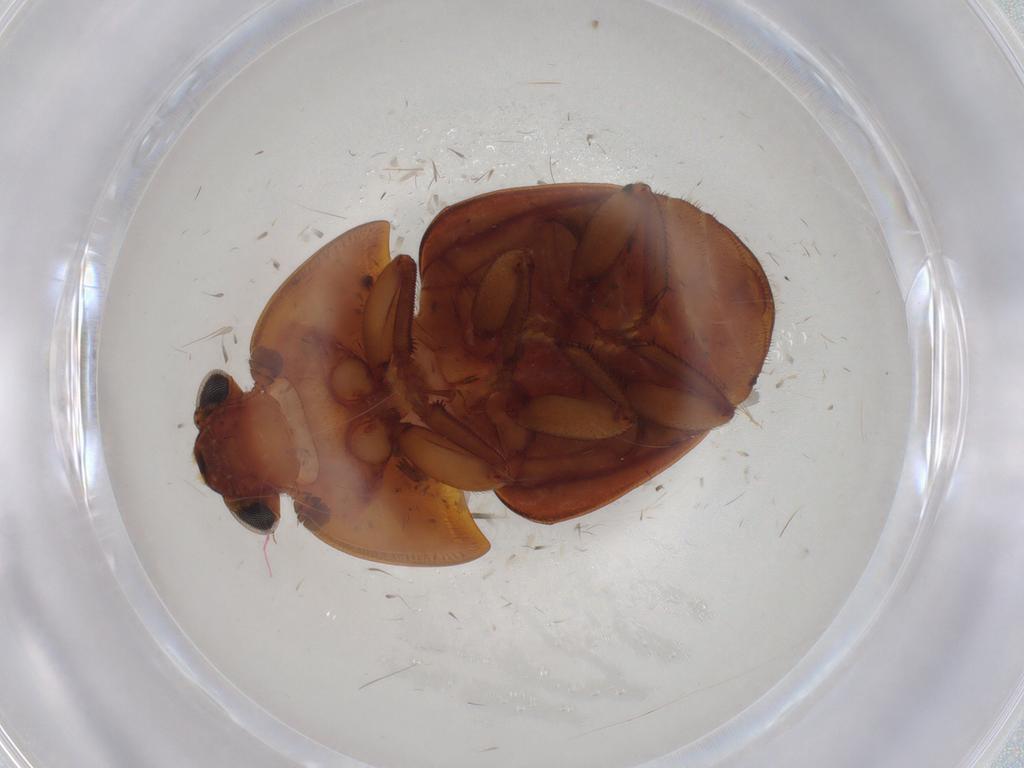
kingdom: Animalia
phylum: Arthropoda
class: Insecta
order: Coleoptera
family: Nitidulidae
